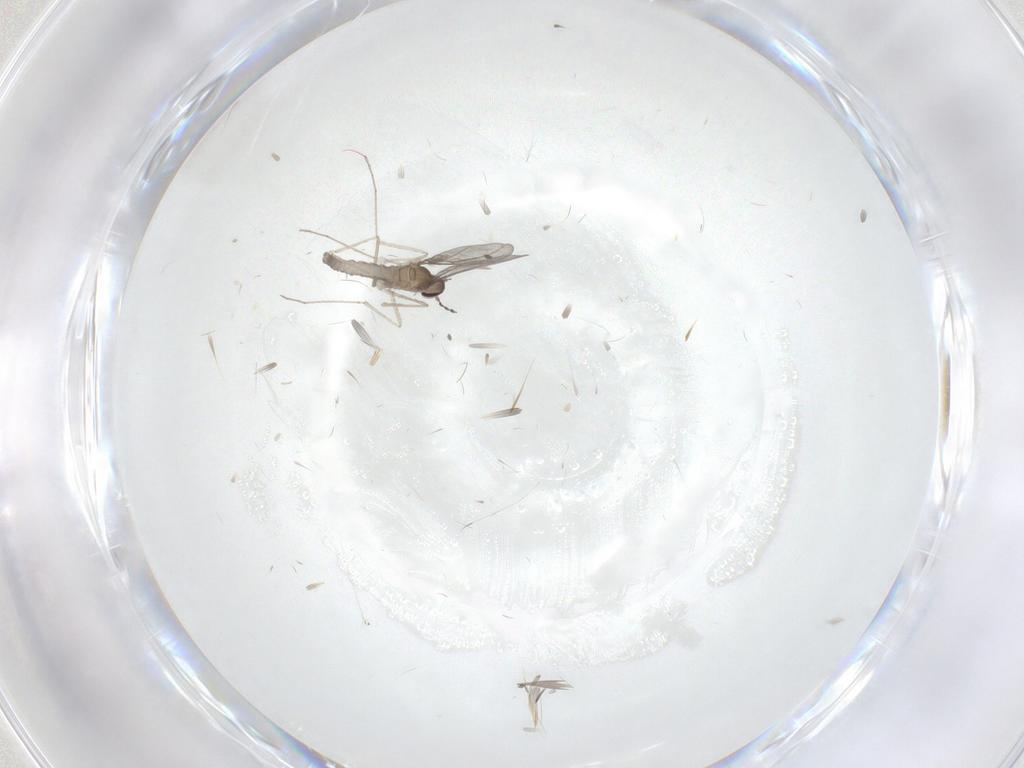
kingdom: Animalia
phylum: Arthropoda
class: Insecta
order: Diptera
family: Cecidomyiidae
